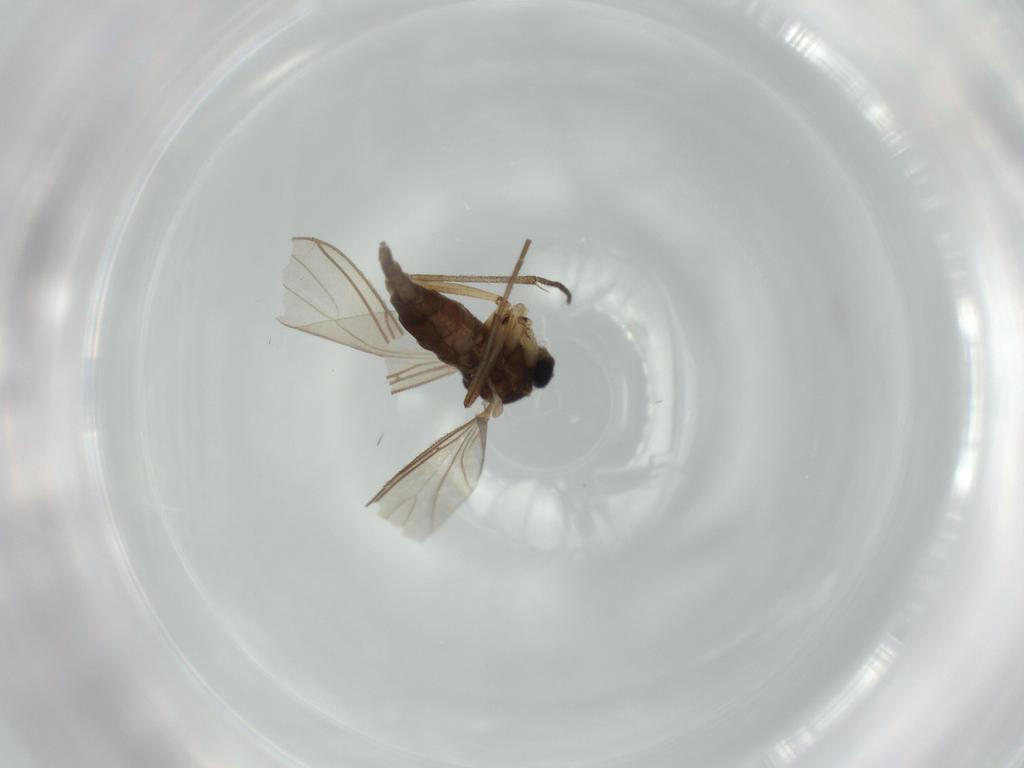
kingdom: Animalia
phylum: Arthropoda
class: Insecta
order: Diptera
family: Sciaridae
